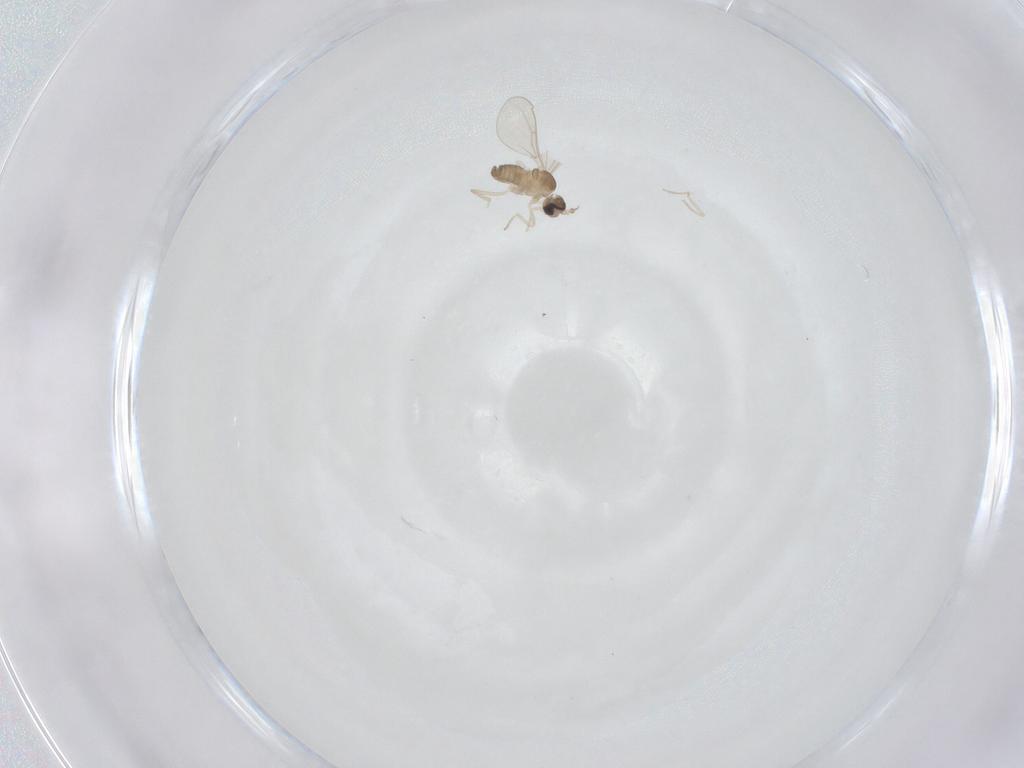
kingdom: Animalia
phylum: Arthropoda
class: Insecta
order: Diptera
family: Cecidomyiidae
